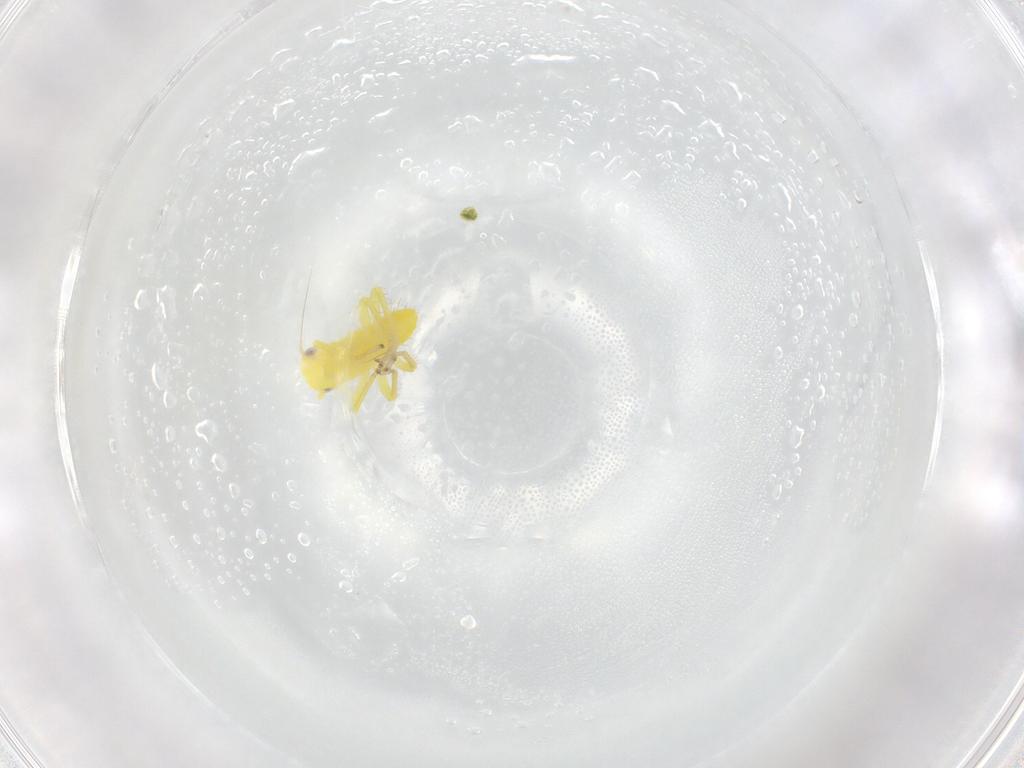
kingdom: Animalia
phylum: Arthropoda
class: Insecta
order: Hemiptera
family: Cicadellidae
